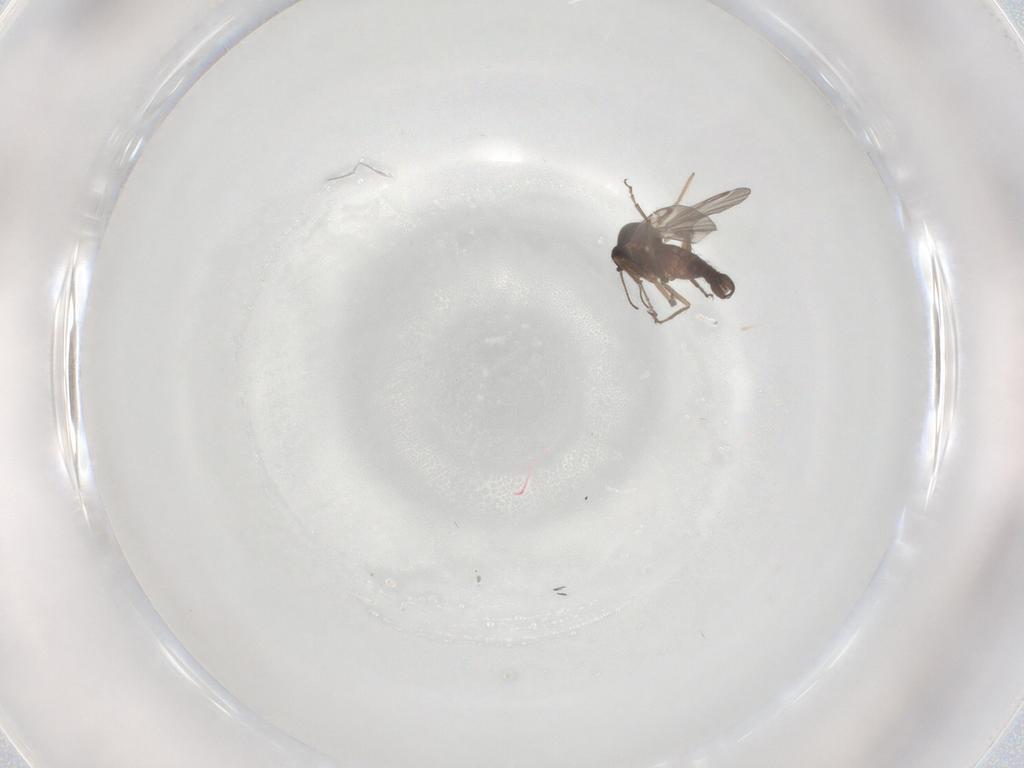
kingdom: Animalia
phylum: Arthropoda
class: Insecta
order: Diptera
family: Chironomidae
